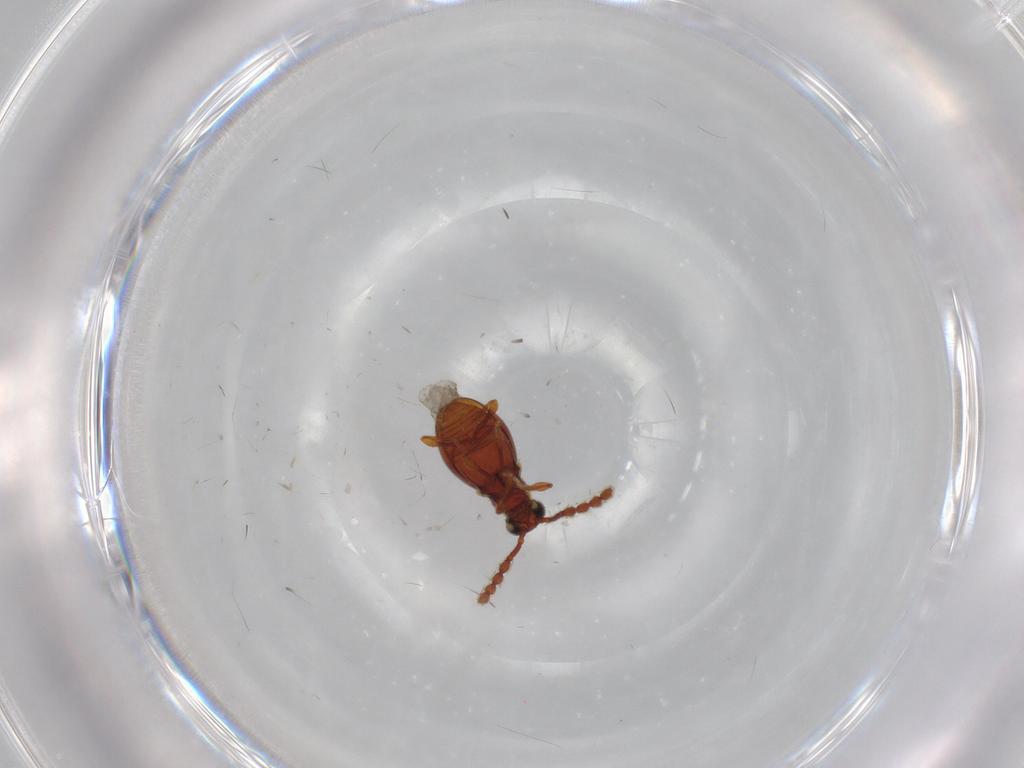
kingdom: Animalia
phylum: Arthropoda
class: Insecta
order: Coleoptera
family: Staphylinidae
